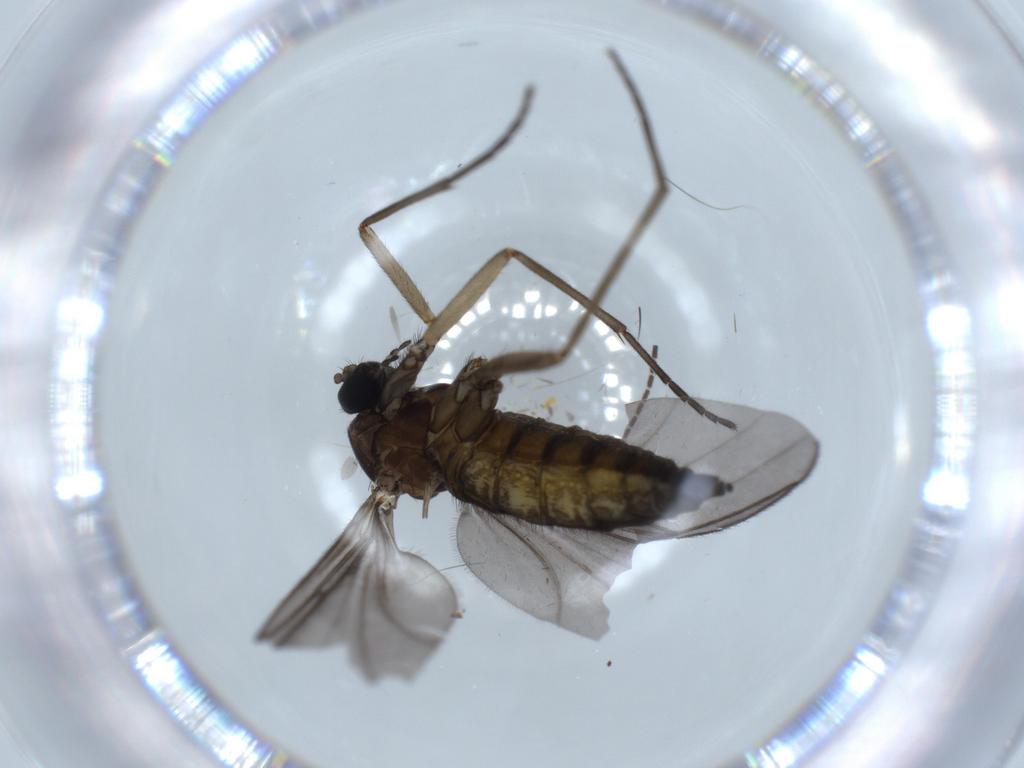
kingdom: Animalia
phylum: Arthropoda
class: Insecta
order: Diptera
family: Sciaridae
